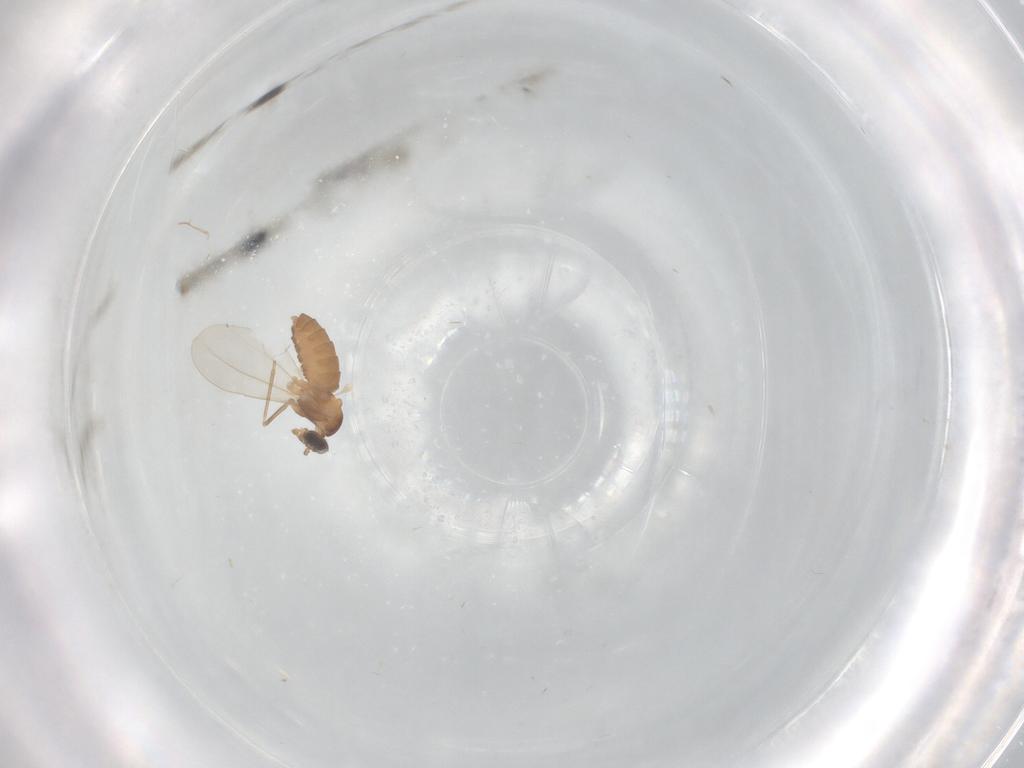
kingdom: Animalia
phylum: Arthropoda
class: Insecta
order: Diptera
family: Cecidomyiidae
